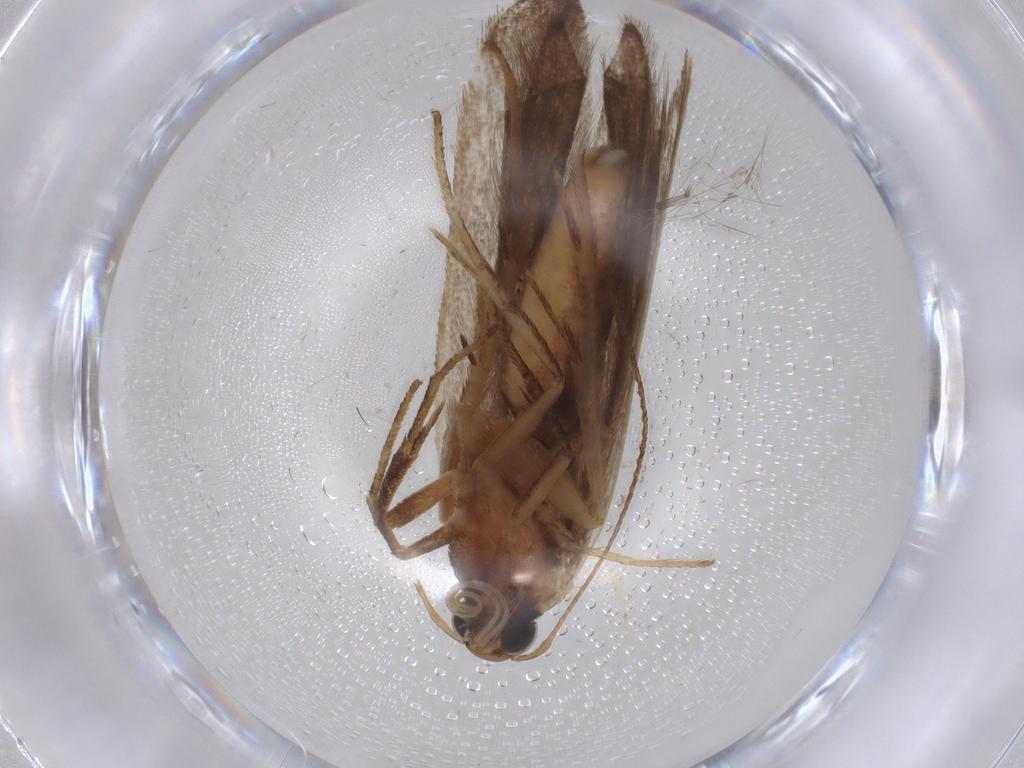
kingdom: Animalia
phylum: Arthropoda
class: Insecta
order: Lepidoptera
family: Gelechiidae
